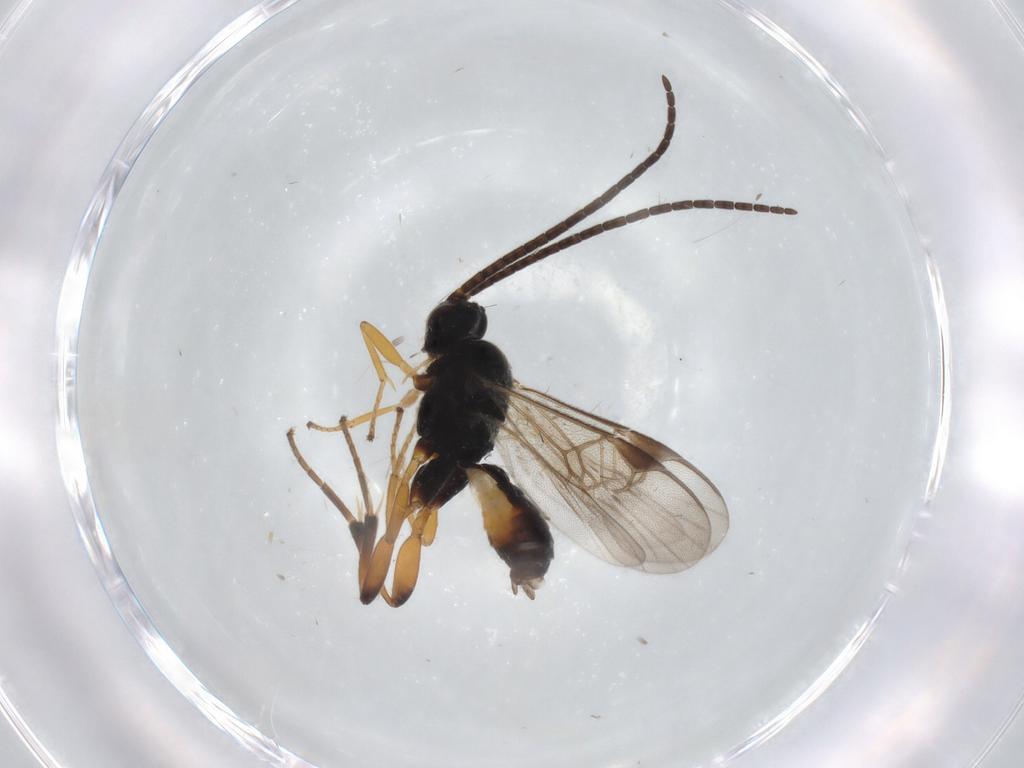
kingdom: Animalia
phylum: Arthropoda
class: Insecta
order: Hymenoptera
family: Braconidae
